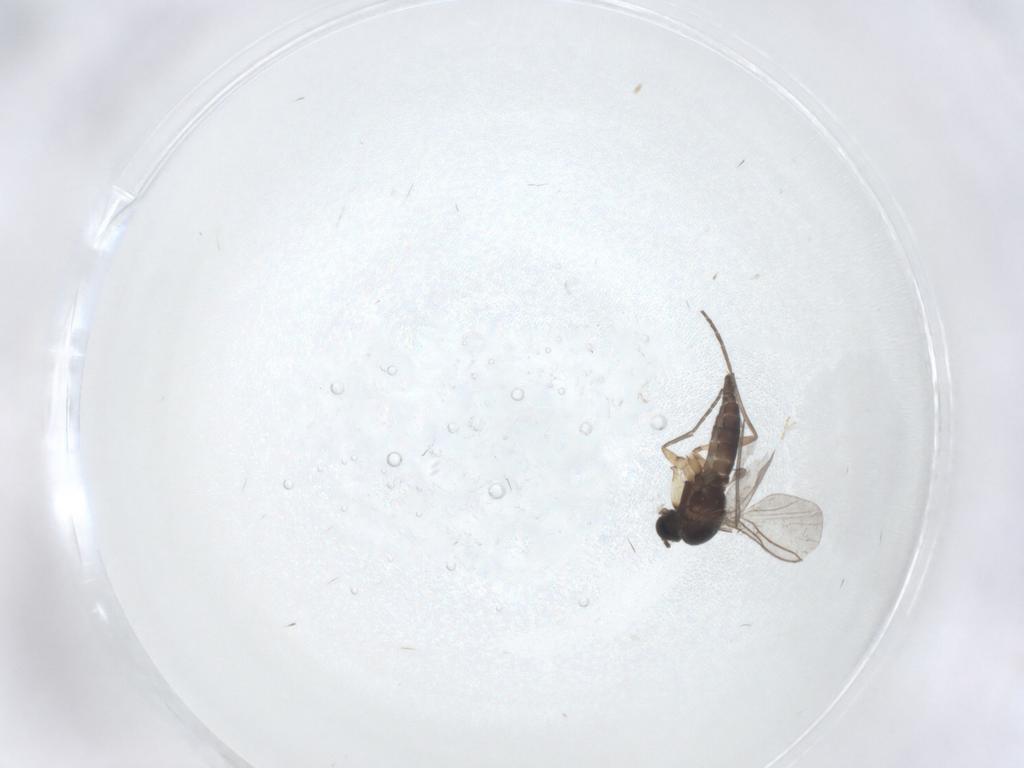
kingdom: Animalia
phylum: Arthropoda
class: Insecta
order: Diptera
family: Sciaridae
